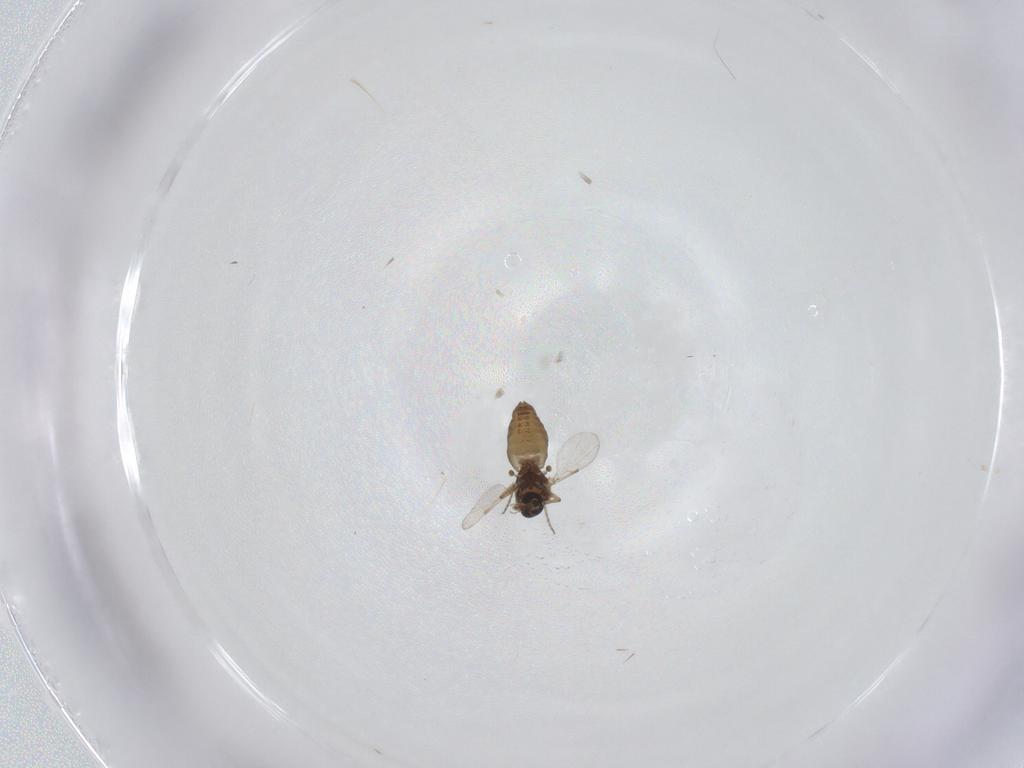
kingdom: Animalia
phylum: Arthropoda
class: Insecta
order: Diptera
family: Ceratopogonidae
